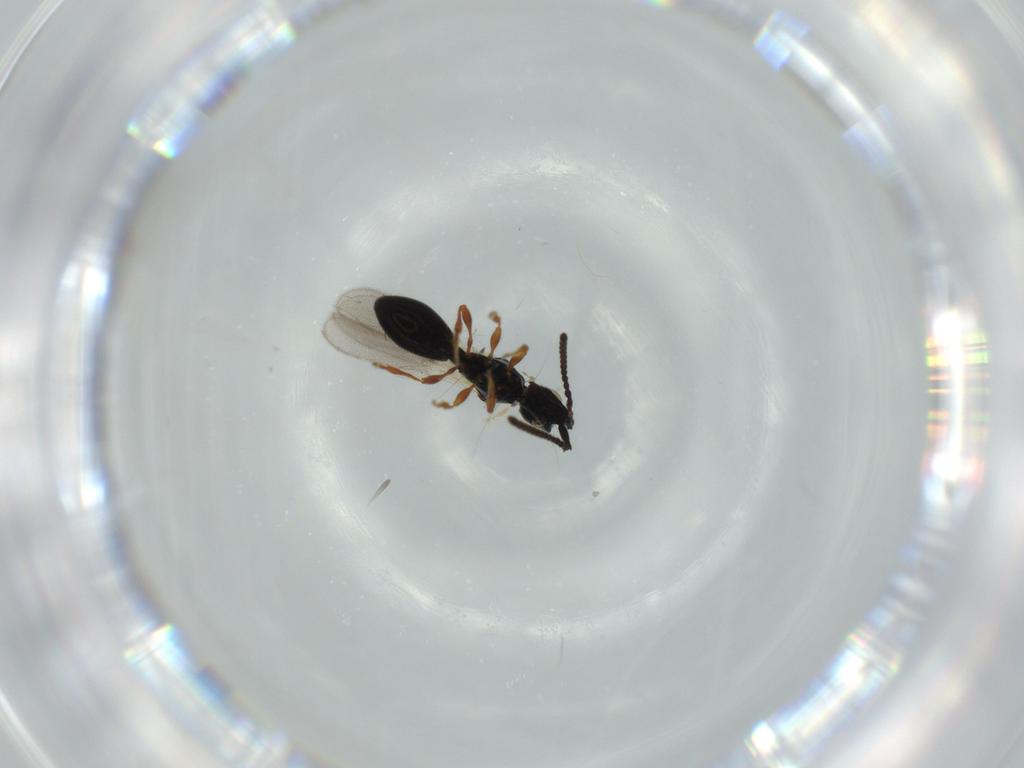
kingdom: Animalia
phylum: Arthropoda
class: Insecta
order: Hymenoptera
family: Diapriidae
